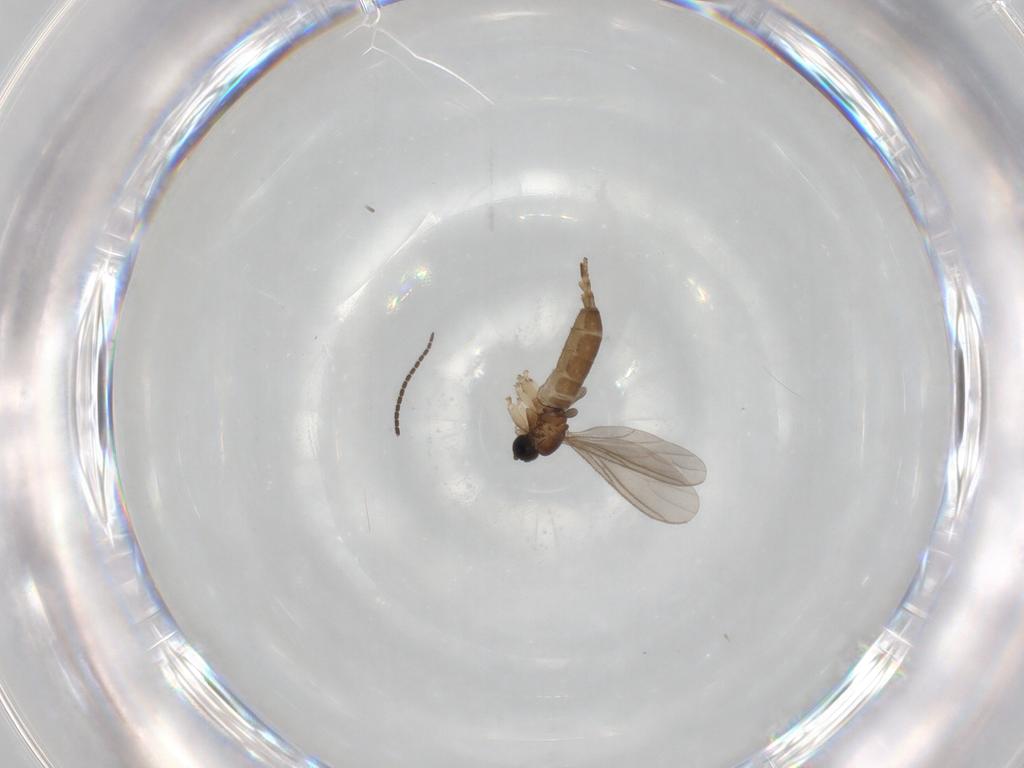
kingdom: Animalia
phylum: Arthropoda
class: Insecta
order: Diptera
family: Sciaridae
